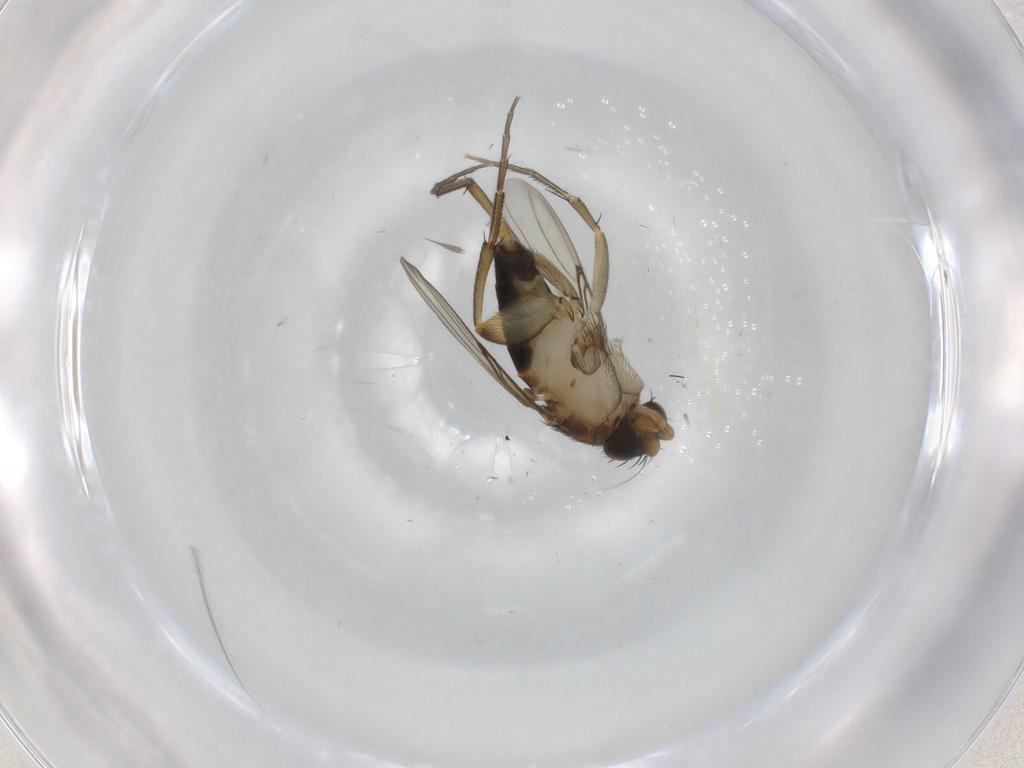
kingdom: Animalia
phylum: Arthropoda
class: Insecta
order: Diptera
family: Phoridae
